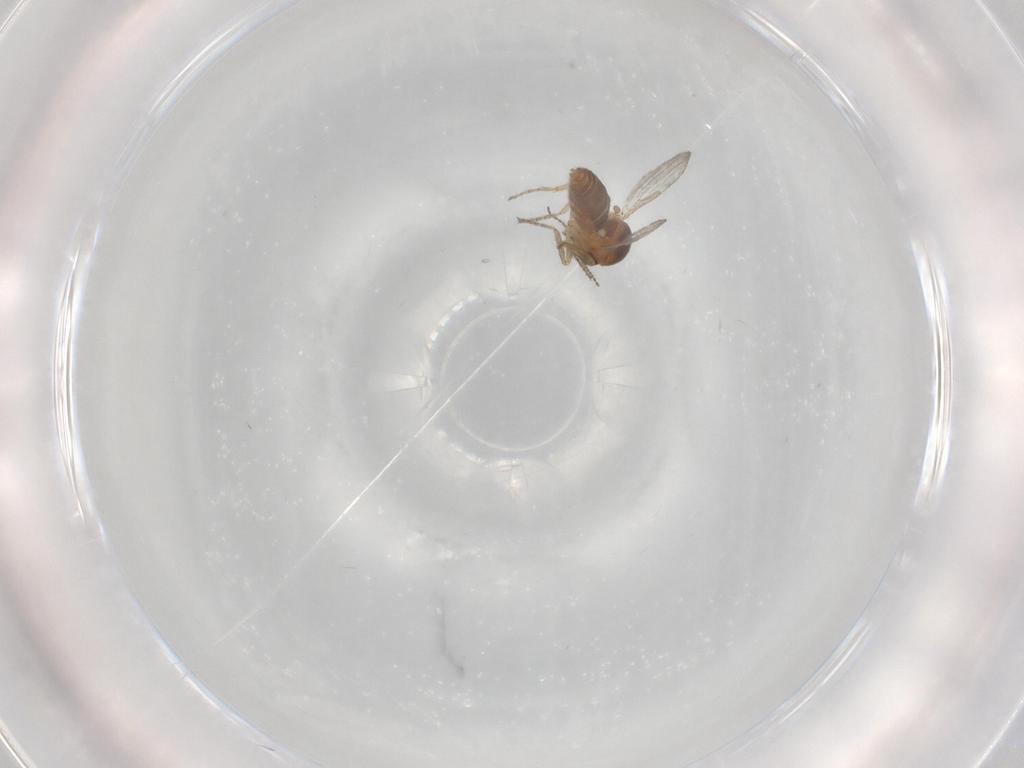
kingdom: Animalia
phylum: Arthropoda
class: Insecta
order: Diptera
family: Ceratopogonidae
